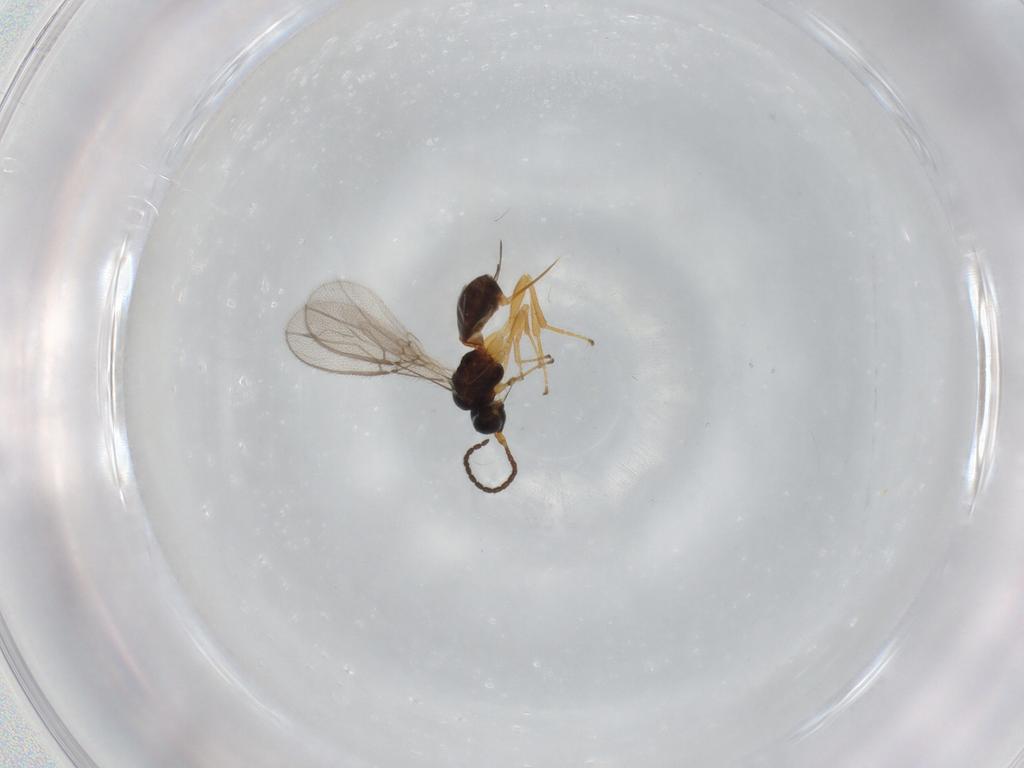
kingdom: Animalia
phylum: Arthropoda
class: Insecta
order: Hymenoptera
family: Braconidae
